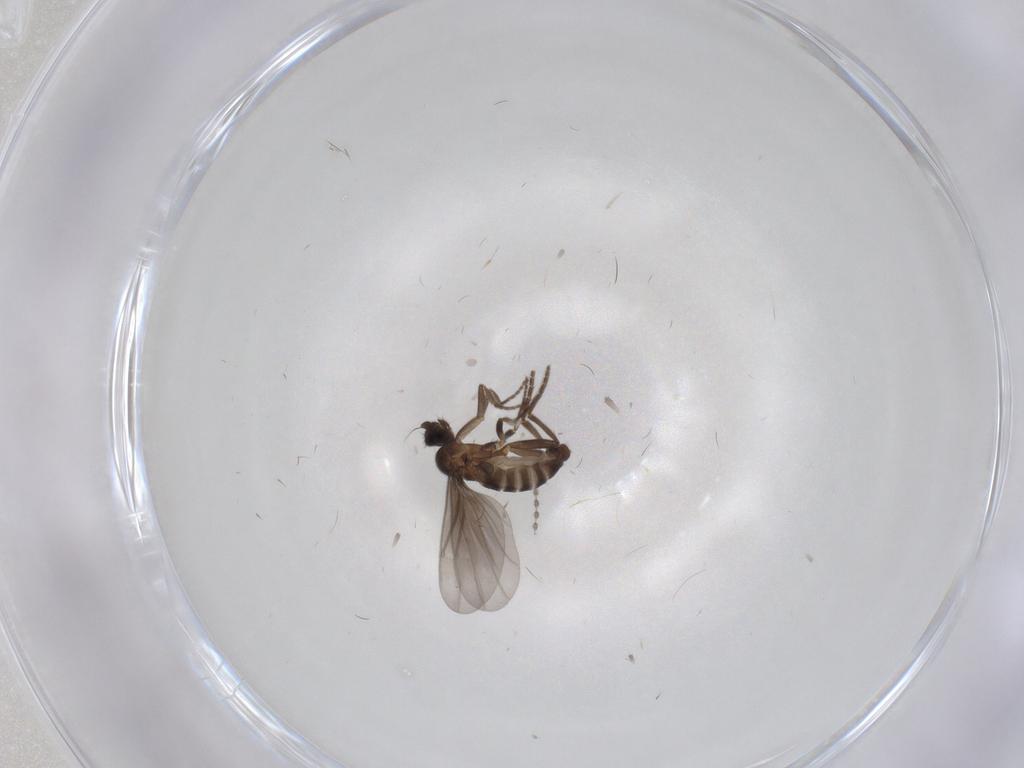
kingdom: Animalia
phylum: Arthropoda
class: Insecta
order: Diptera
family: Phoridae
